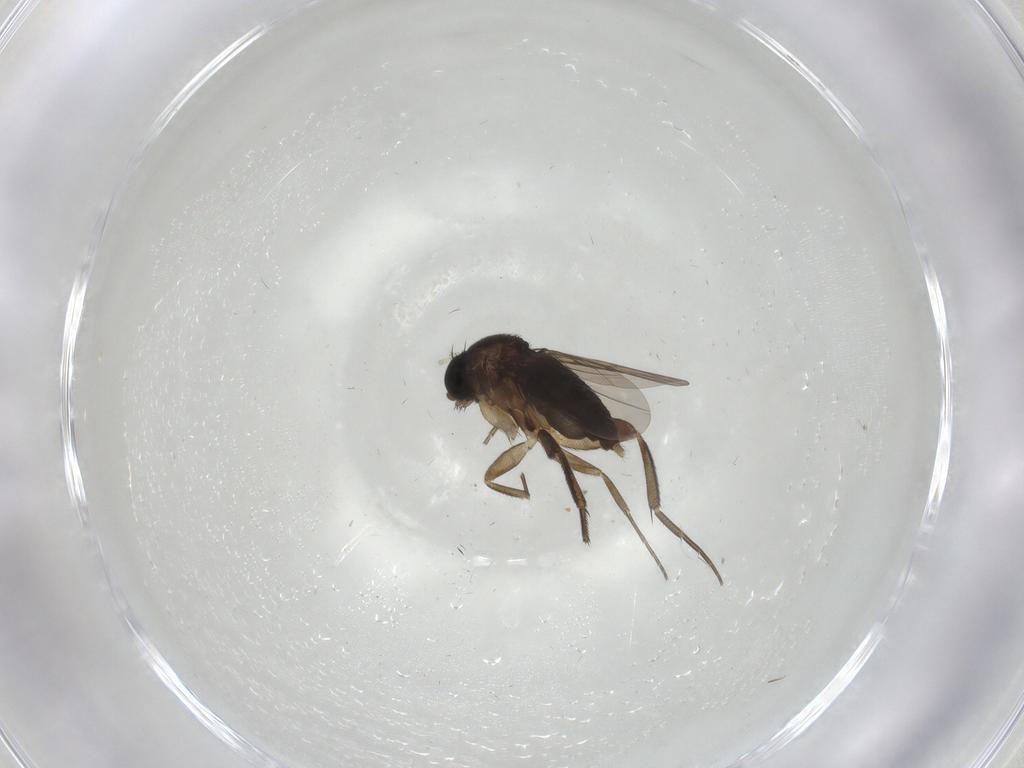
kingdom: Animalia
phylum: Arthropoda
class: Insecta
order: Diptera
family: Phoridae
